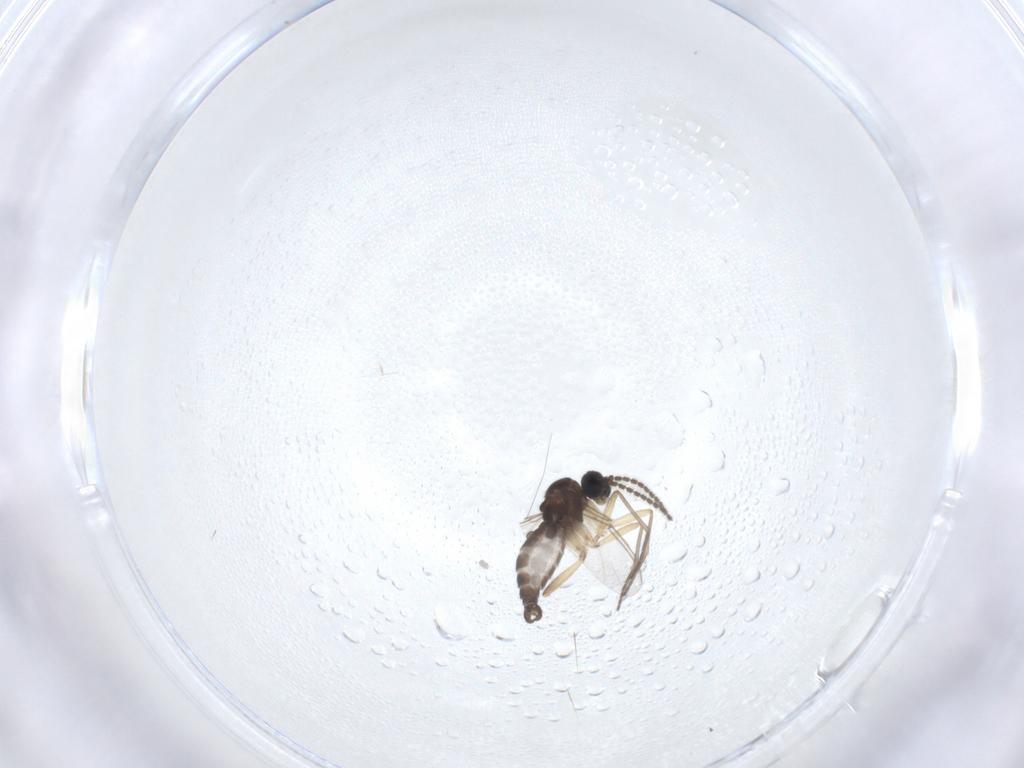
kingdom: Animalia
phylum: Arthropoda
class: Insecta
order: Diptera
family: Sciaridae
